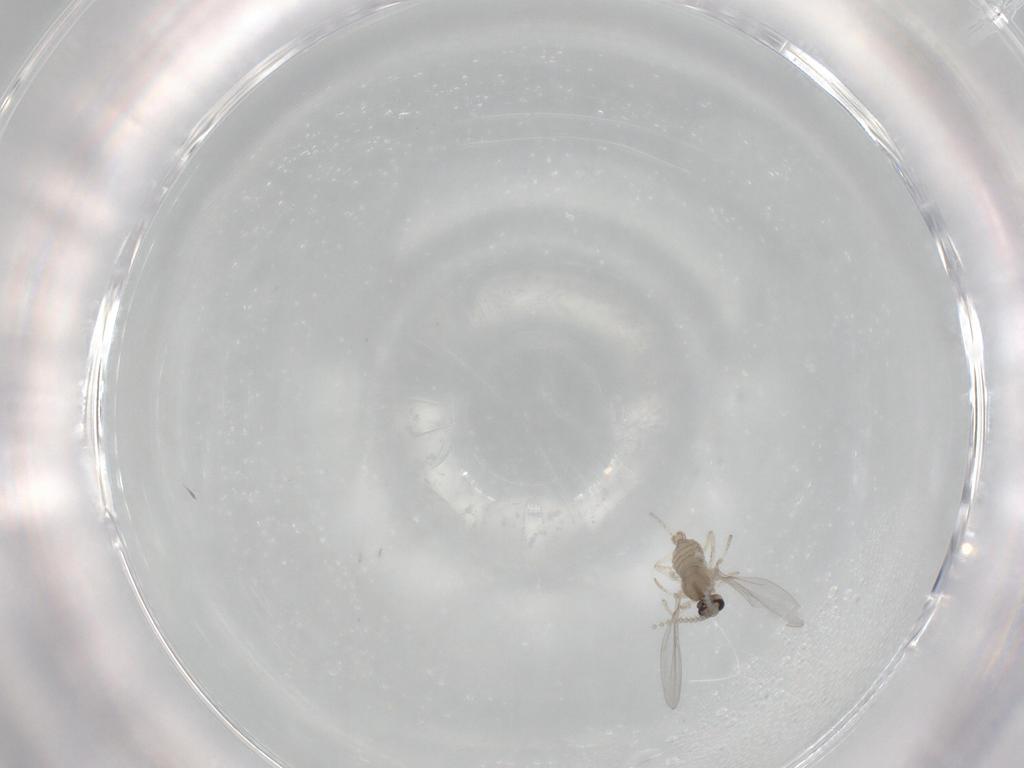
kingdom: Animalia
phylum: Arthropoda
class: Insecta
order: Diptera
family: Cecidomyiidae
